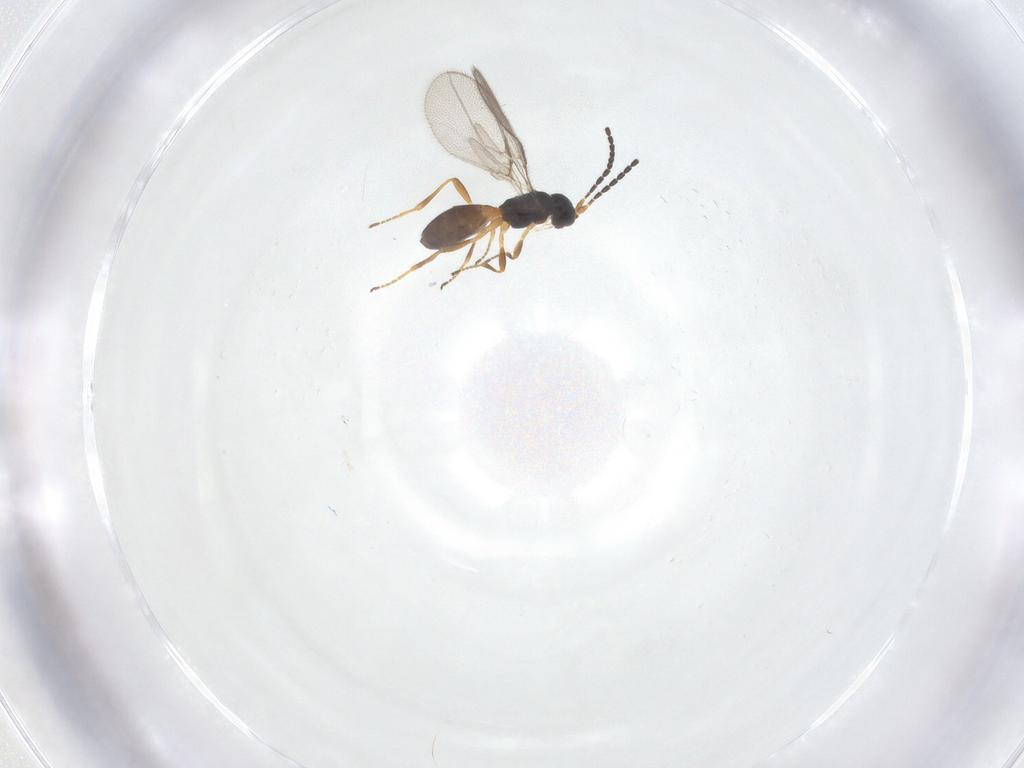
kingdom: Animalia
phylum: Arthropoda
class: Insecta
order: Hymenoptera
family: Braconidae
